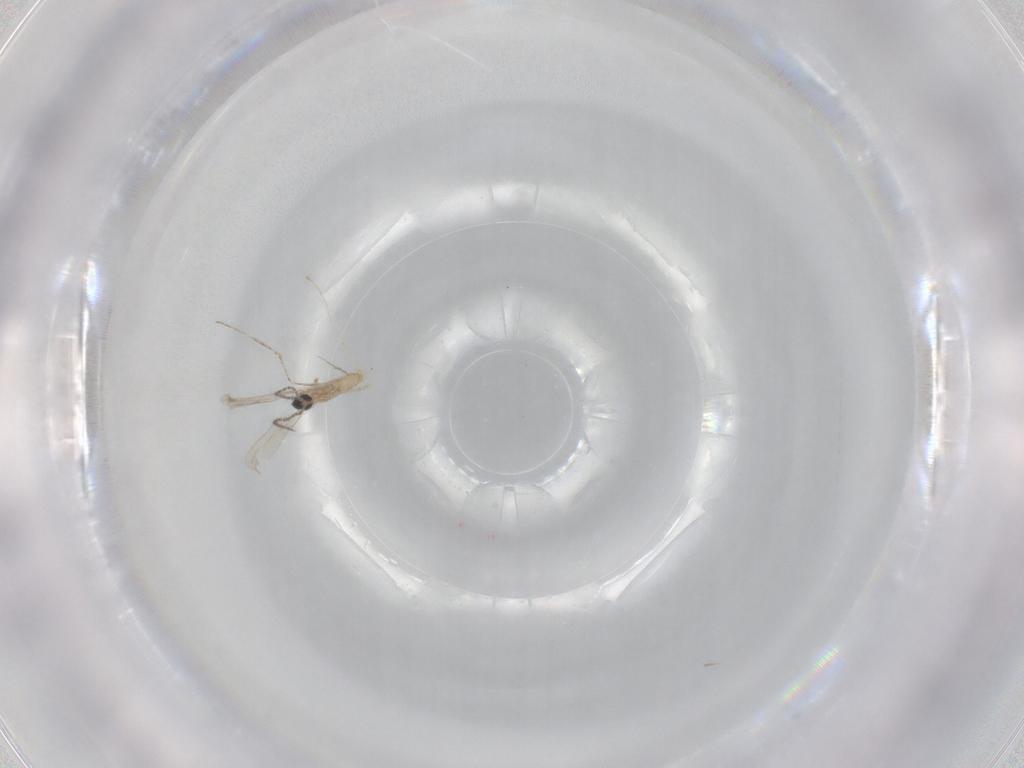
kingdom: Animalia
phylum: Arthropoda
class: Insecta
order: Diptera
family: Cecidomyiidae
